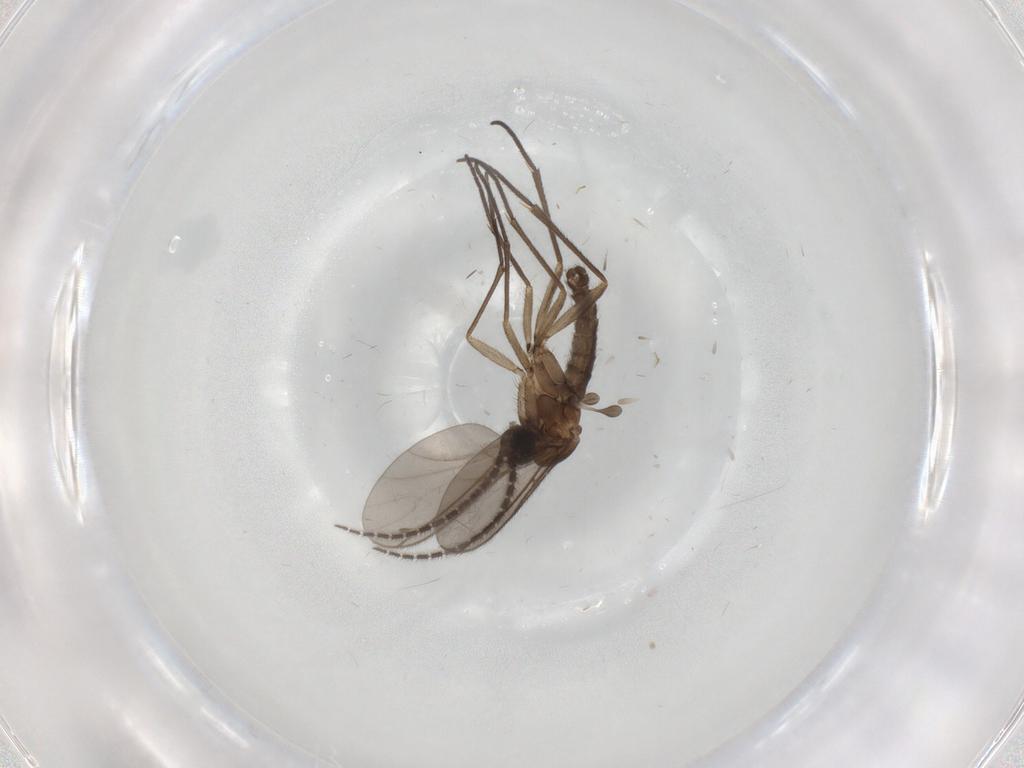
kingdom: Animalia
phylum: Arthropoda
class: Insecta
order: Diptera
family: Sciaridae
